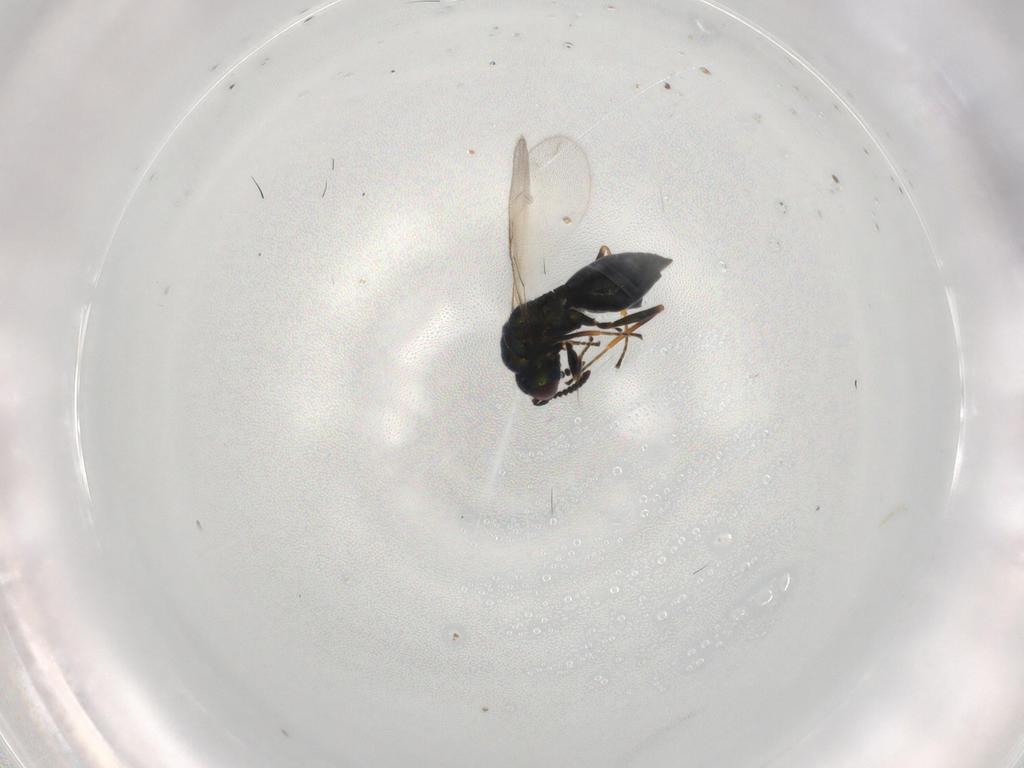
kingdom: Animalia
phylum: Arthropoda
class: Insecta
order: Hymenoptera
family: Pteromalidae
